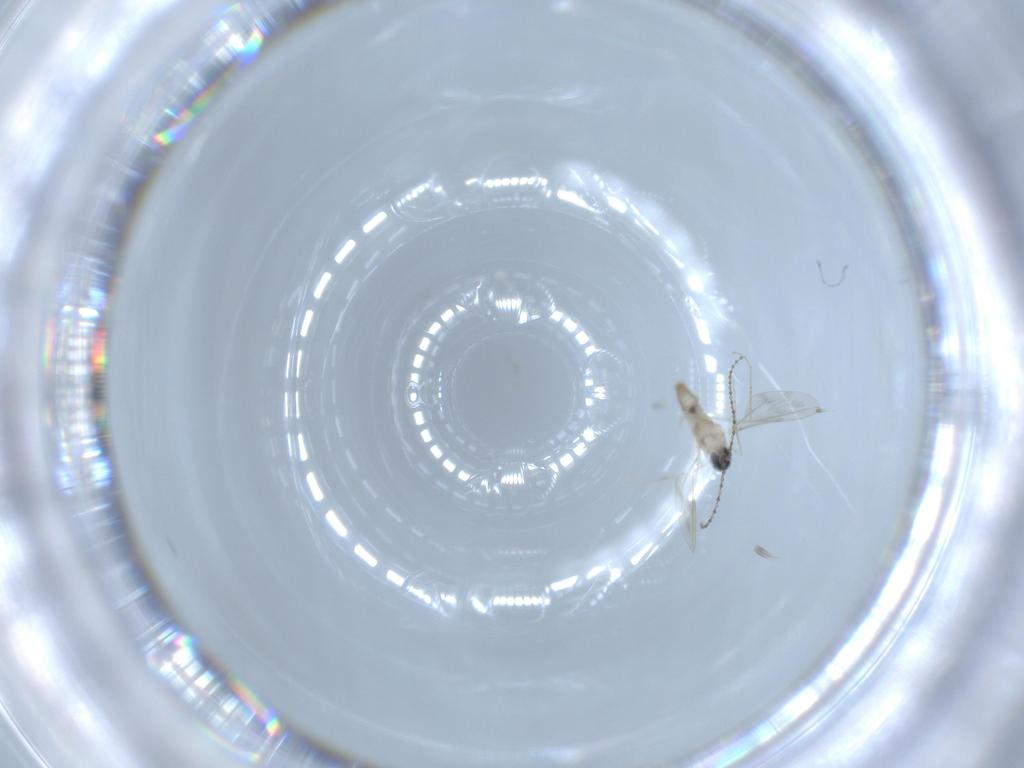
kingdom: Animalia
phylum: Arthropoda
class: Insecta
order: Diptera
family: Cecidomyiidae
